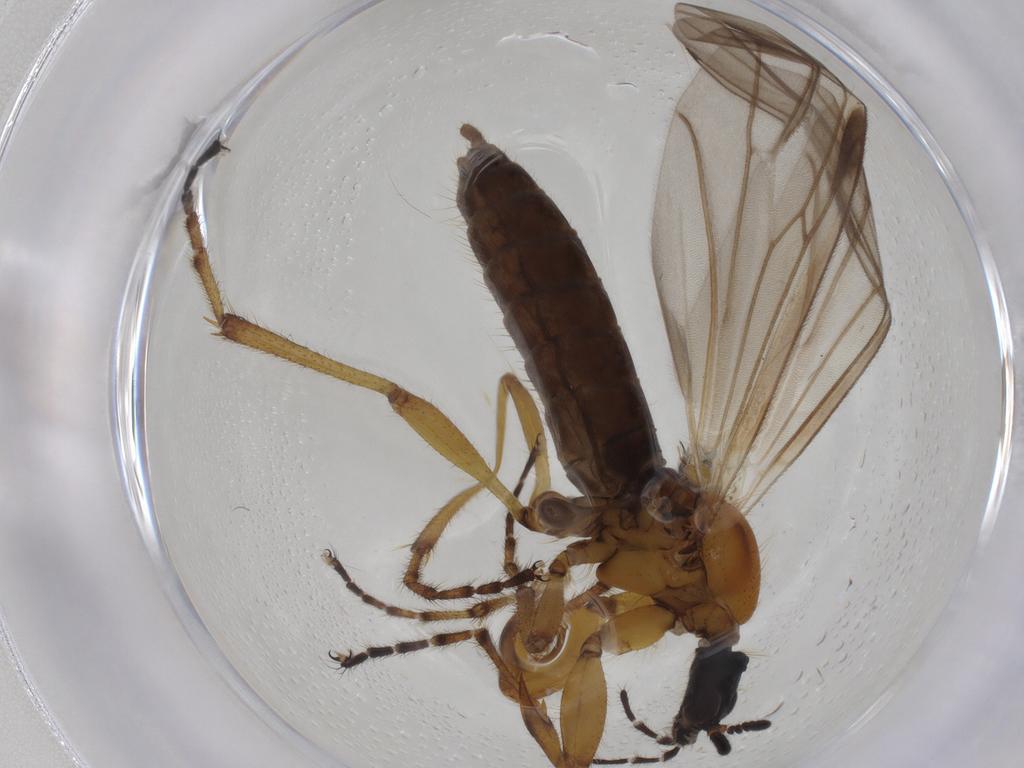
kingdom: Animalia
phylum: Arthropoda
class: Insecta
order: Diptera
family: Bibionidae
